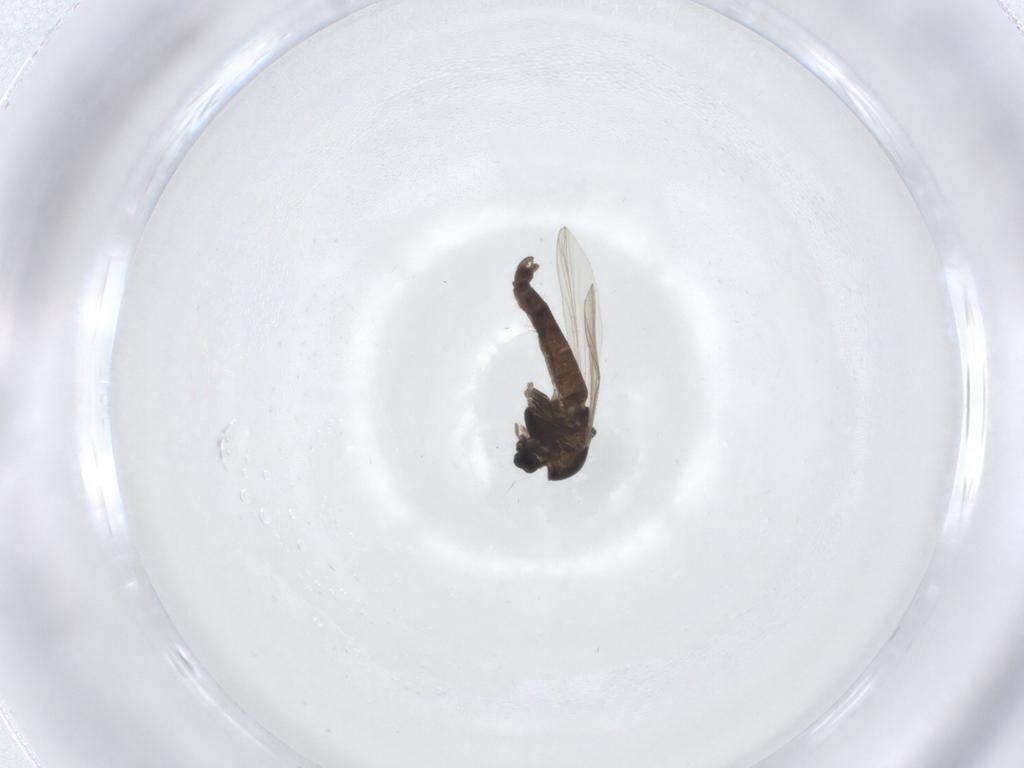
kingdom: Animalia
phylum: Arthropoda
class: Insecta
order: Diptera
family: Chironomidae
